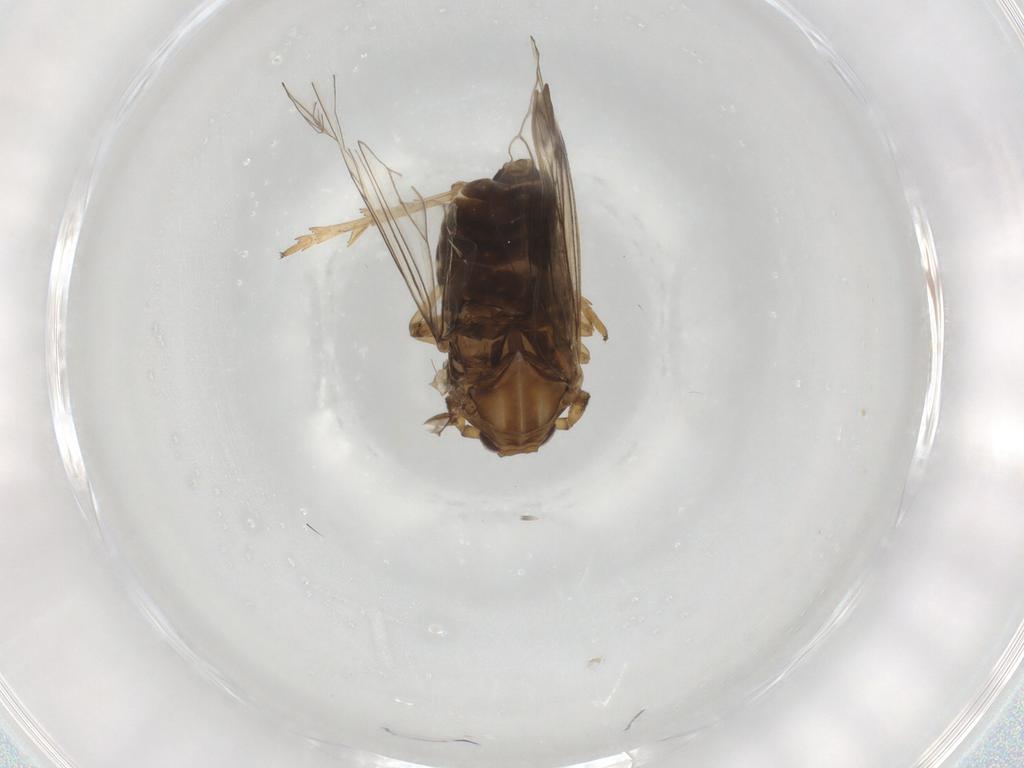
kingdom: Animalia
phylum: Arthropoda
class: Insecta
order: Hemiptera
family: Delphacidae
